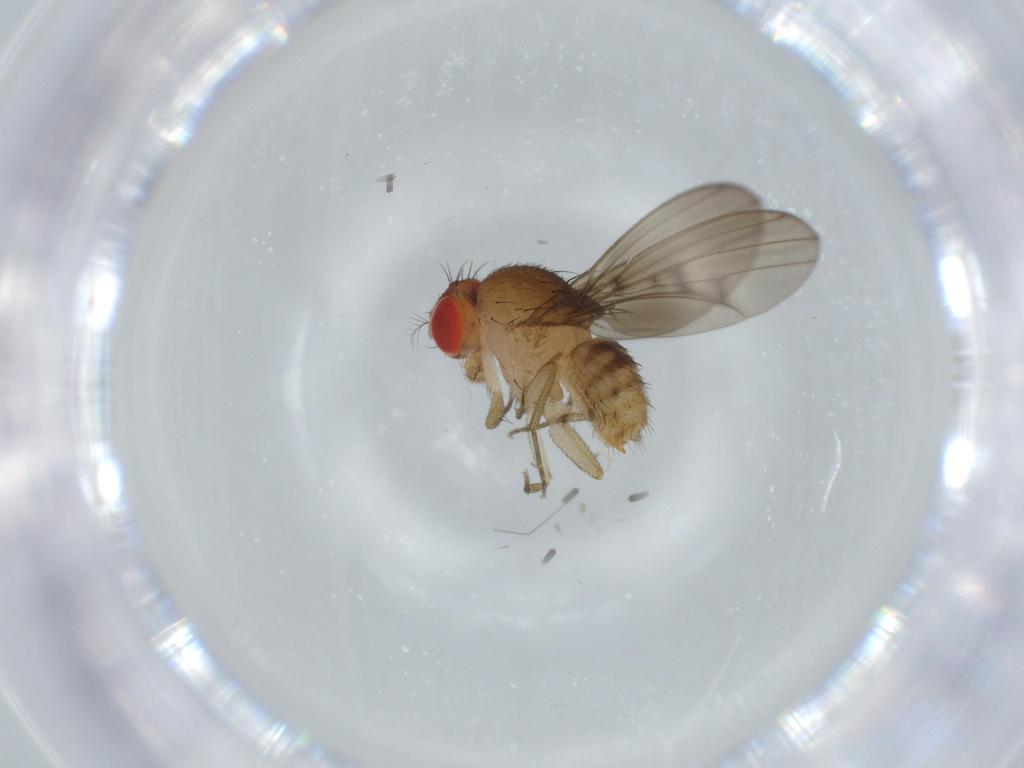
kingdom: Animalia
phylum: Arthropoda
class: Insecta
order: Diptera
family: Drosophilidae
